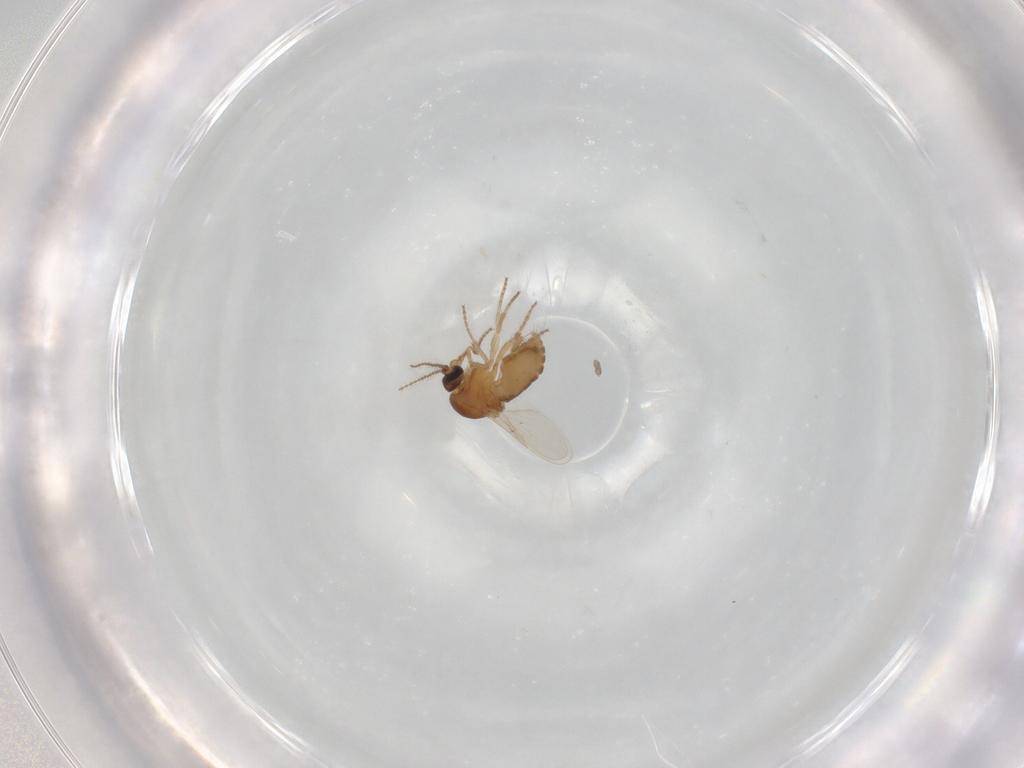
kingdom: Animalia
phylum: Arthropoda
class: Insecta
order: Diptera
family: Ceratopogonidae
